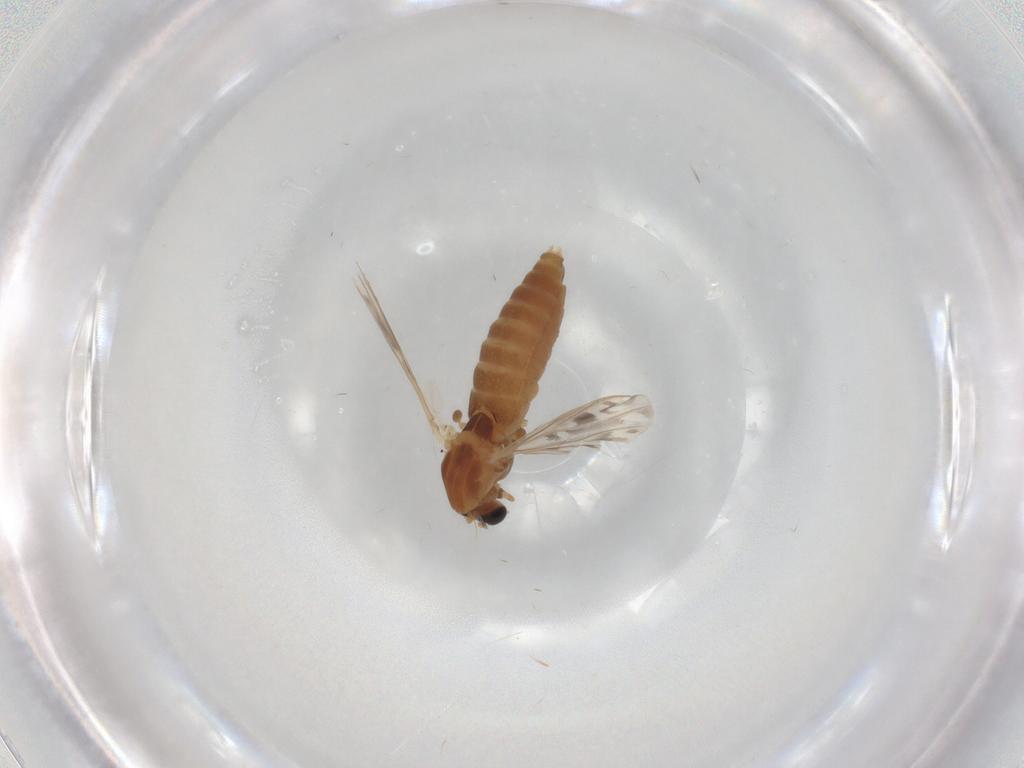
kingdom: Animalia
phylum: Arthropoda
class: Insecta
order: Diptera
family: Chironomidae
